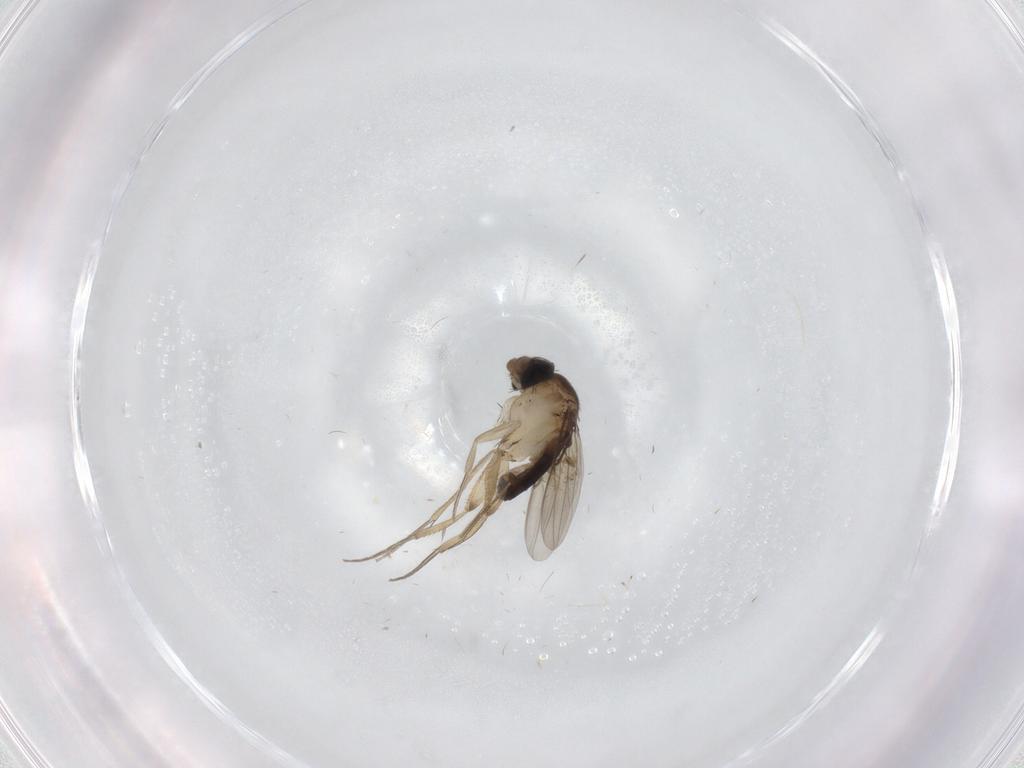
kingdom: Animalia
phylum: Arthropoda
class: Insecta
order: Diptera
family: Phoridae
